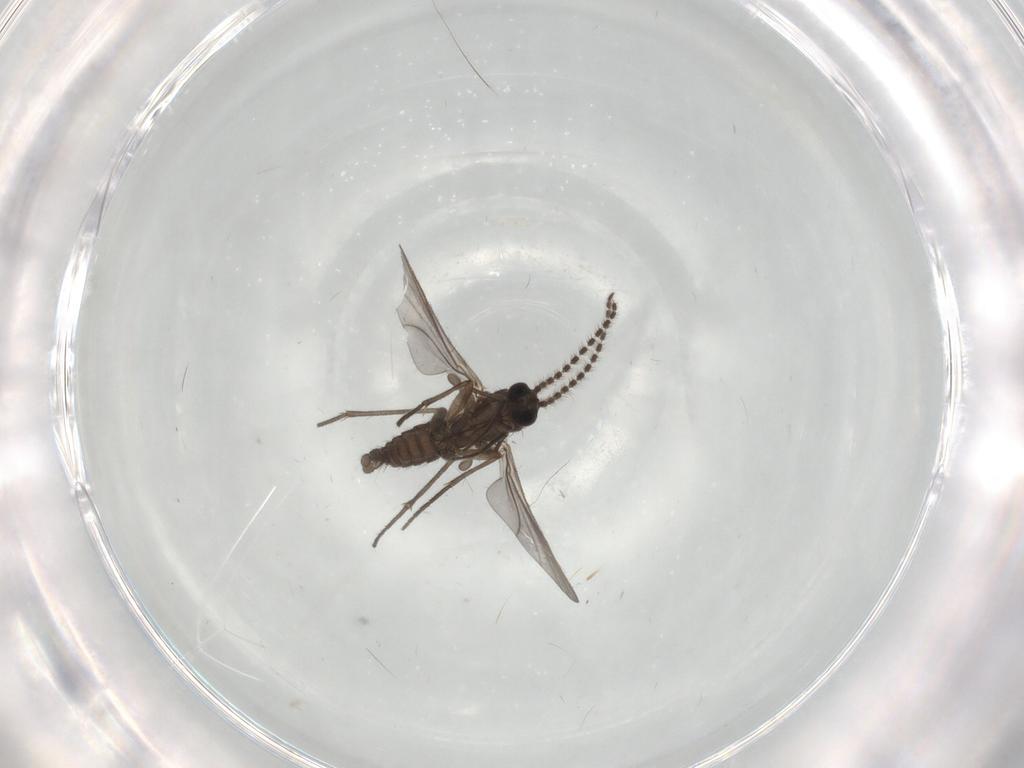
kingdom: Animalia
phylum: Arthropoda
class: Insecta
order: Diptera
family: Sciaridae
